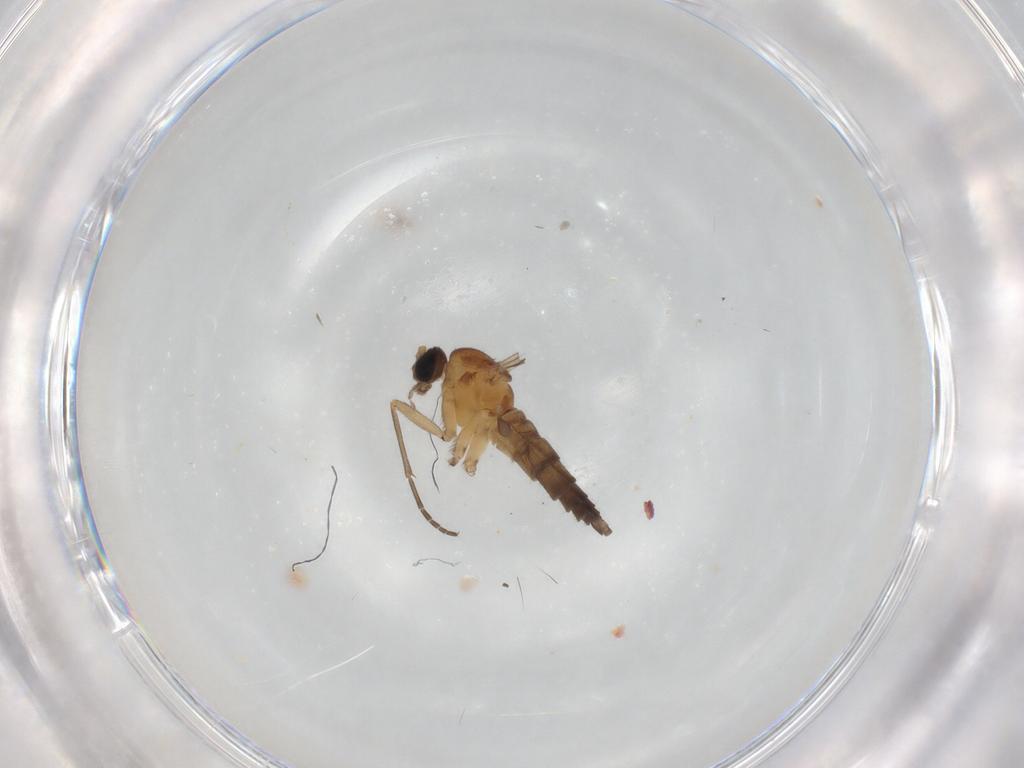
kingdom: Animalia
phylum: Arthropoda
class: Insecta
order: Diptera
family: Sciaridae
